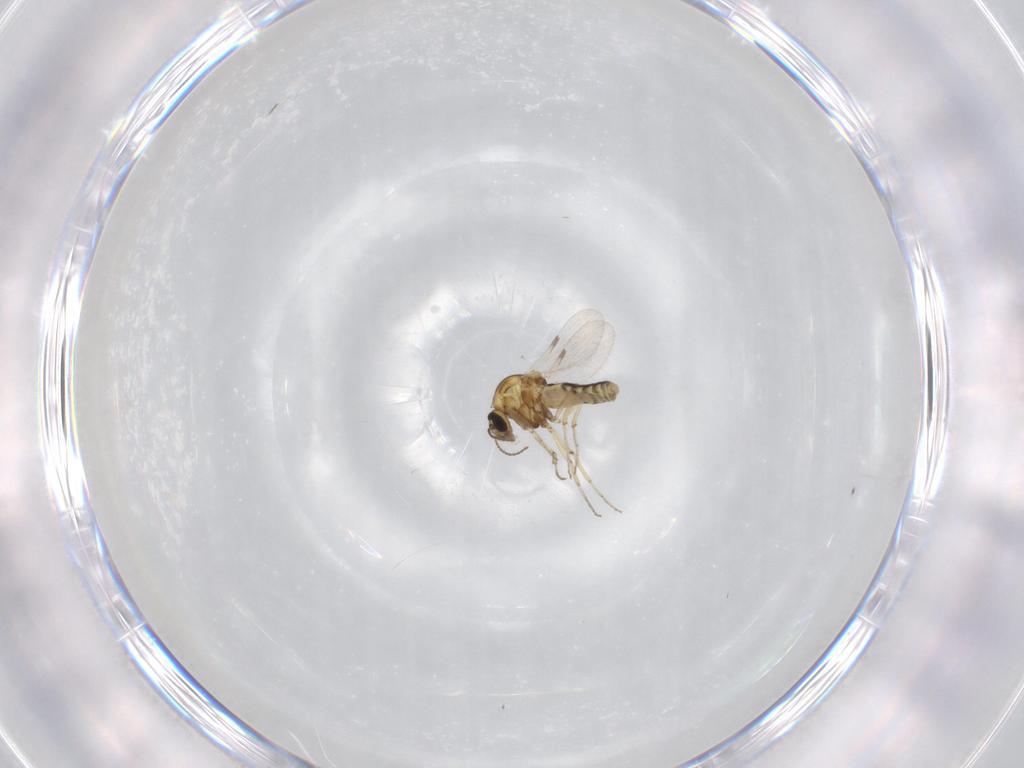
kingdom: Animalia
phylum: Arthropoda
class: Insecta
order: Diptera
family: Ceratopogonidae
